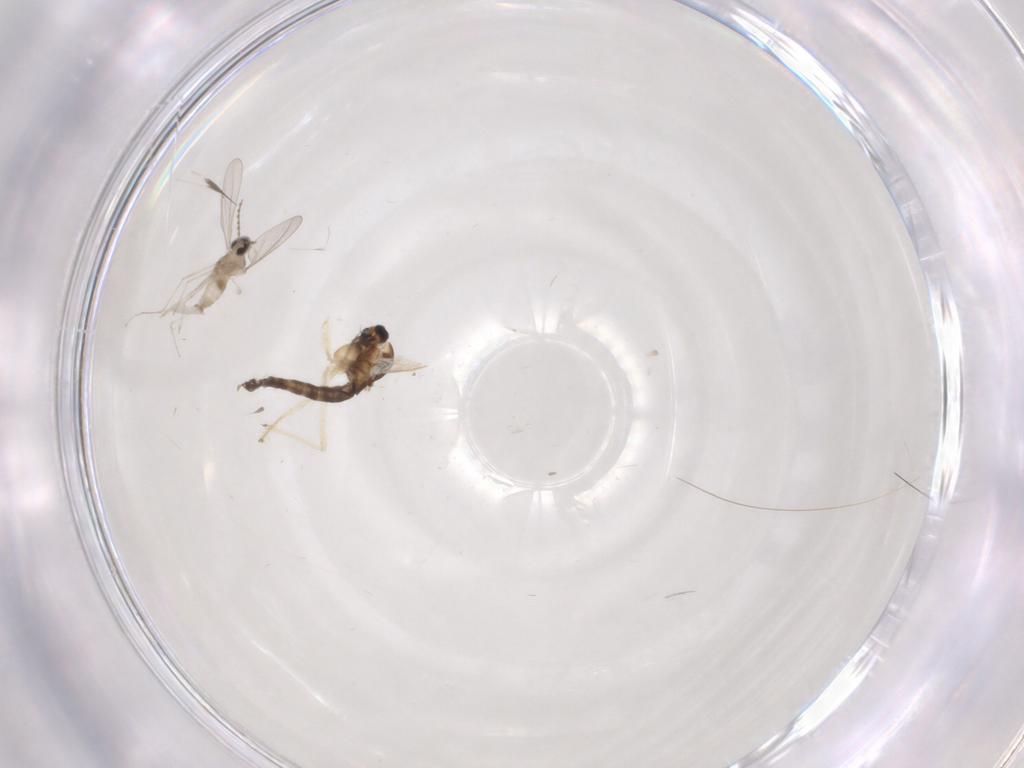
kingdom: Animalia
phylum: Arthropoda
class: Insecta
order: Diptera
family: Chironomidae
